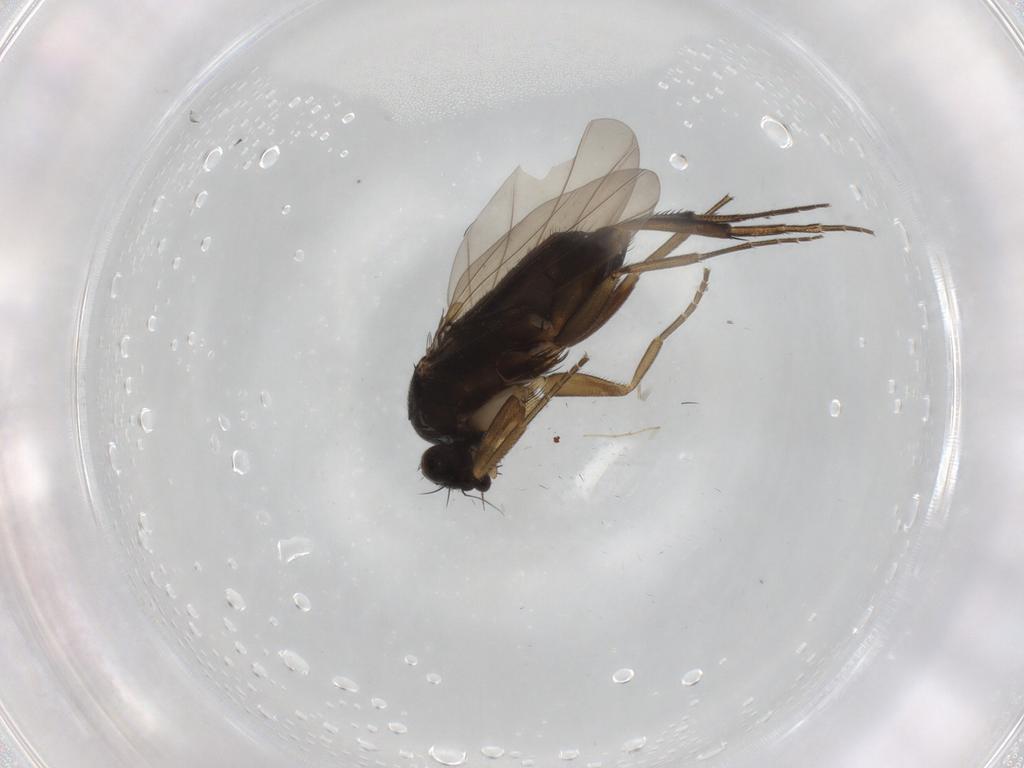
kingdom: Animalia
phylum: Arthropoda
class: Insecta
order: Diptera
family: Phoridae
